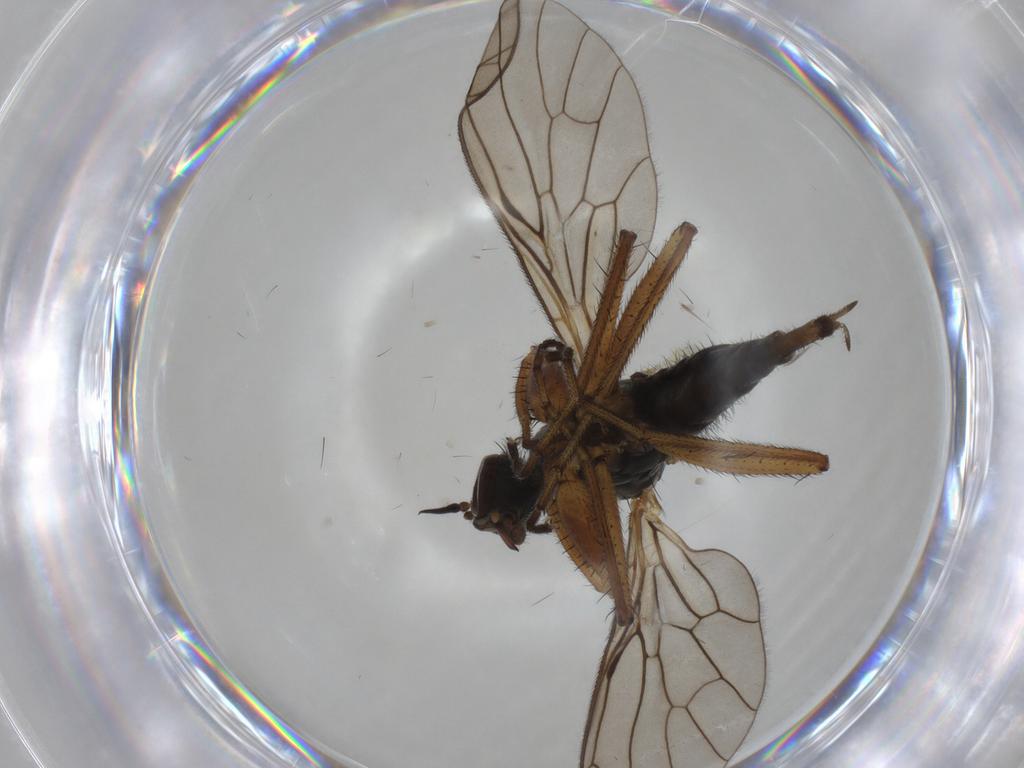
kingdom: Animalia
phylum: Arthropoda
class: Insecta
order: Diptera
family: Empididae
